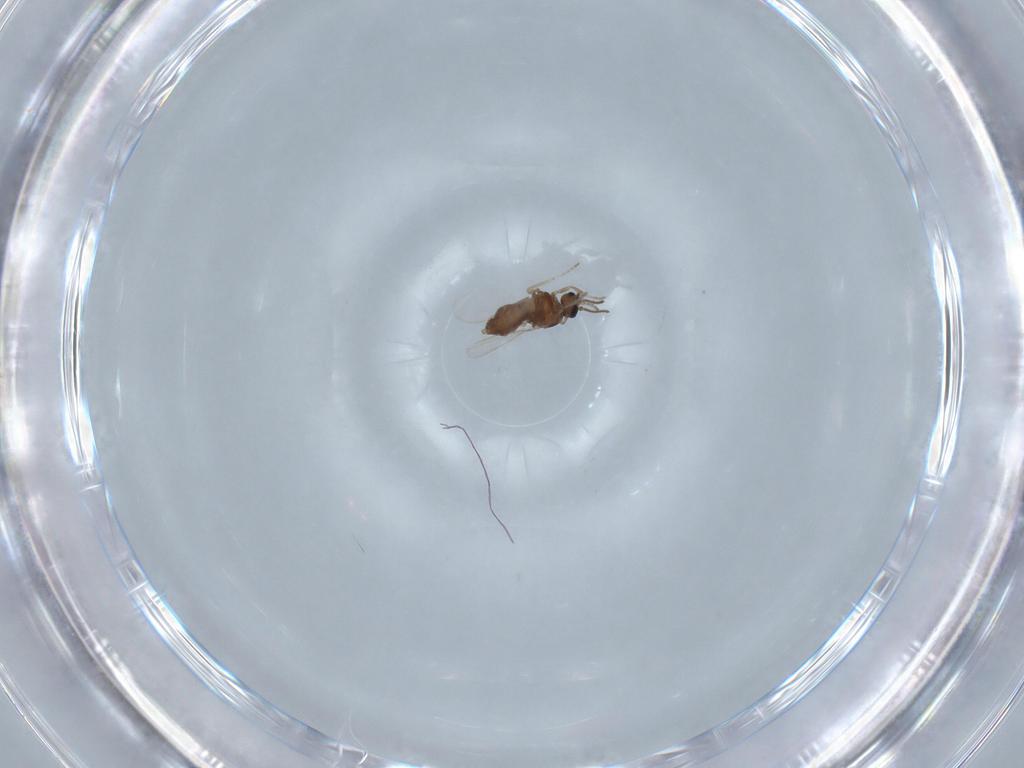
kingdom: Animalia
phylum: Arthropoda
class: Insecta
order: Diptera
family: Ceratopogonidae
